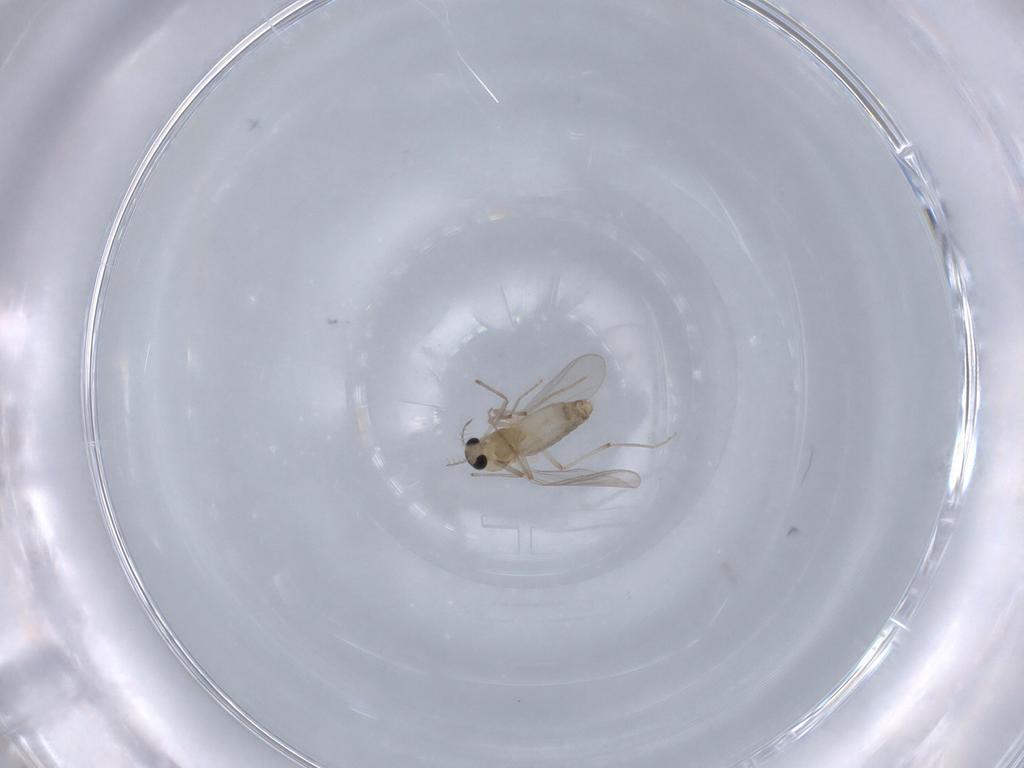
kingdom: Animalia
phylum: Arthropoda
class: Insecta
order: Diptera
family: Chironomidae
